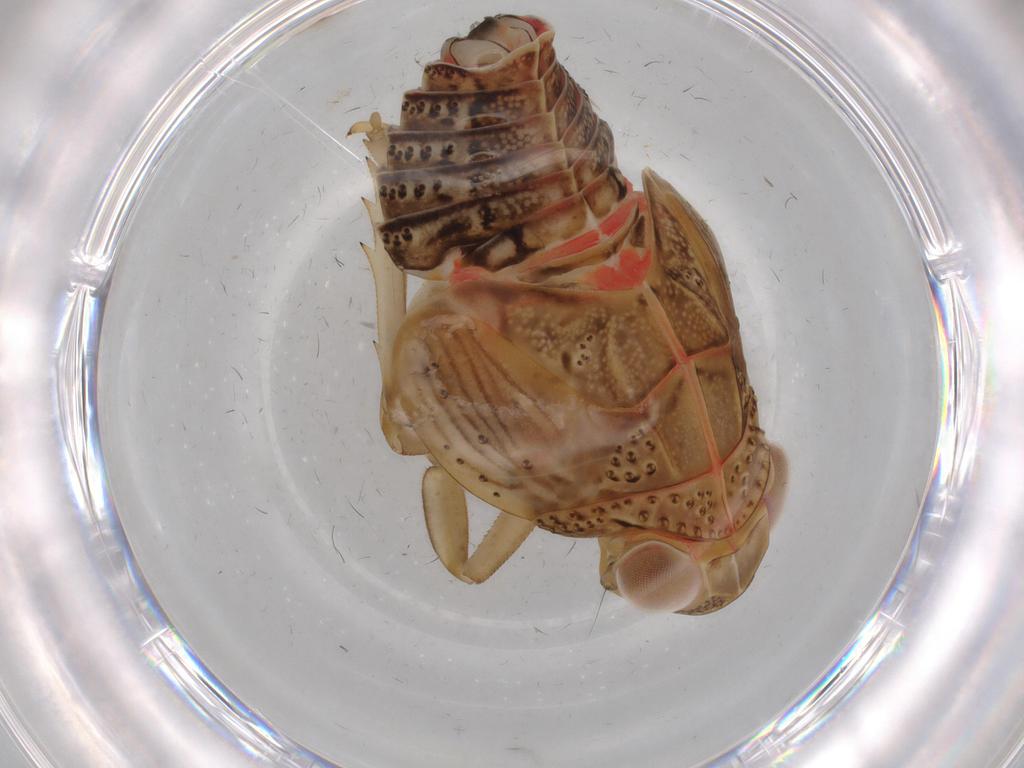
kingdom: Animalia
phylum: Arthropoda
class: Insecta
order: Hemiptera
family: Issidae
